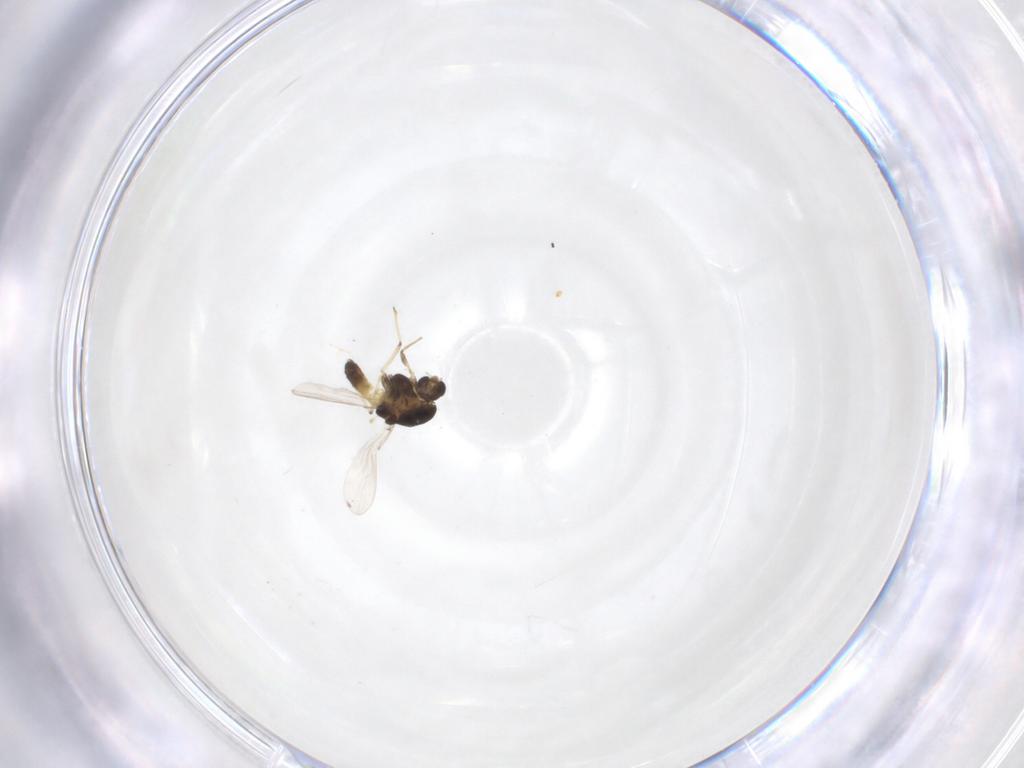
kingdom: Animalia
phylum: Arthropoda
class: Insecta
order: Diptera
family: Chironomidae
